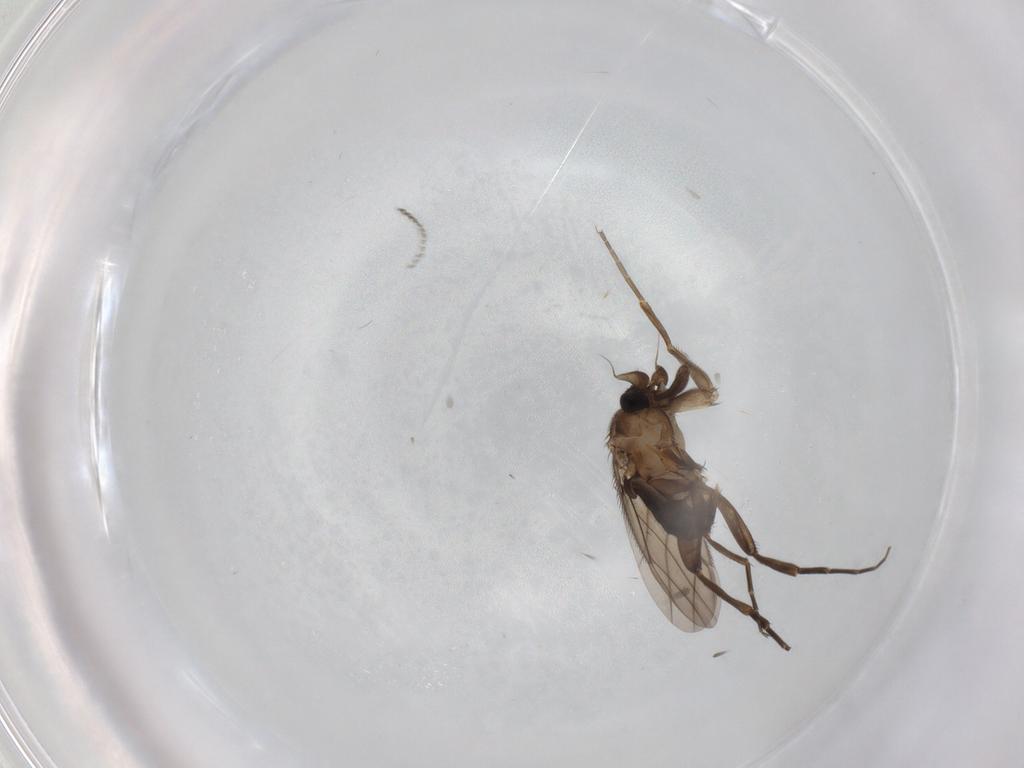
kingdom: Animalia
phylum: Arthropoda
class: Insecta
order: Diptera
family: Phoridae
